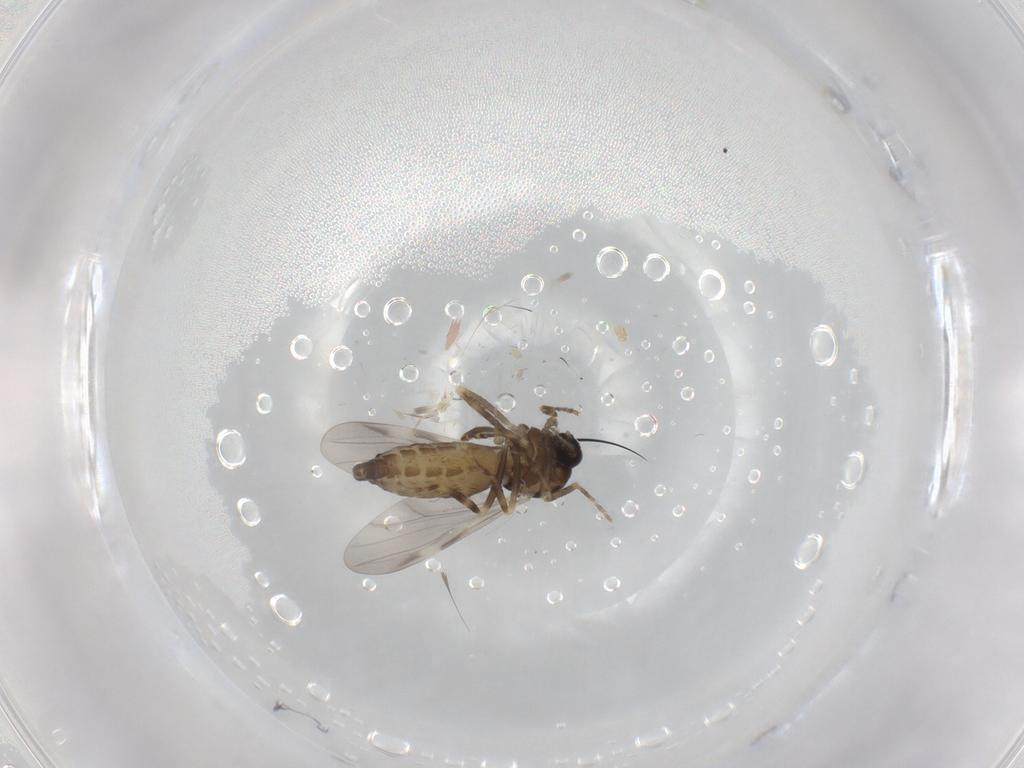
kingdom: Animalia
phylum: Arthropoda
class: Insecta
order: Diptera
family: Ceratopogonidae
